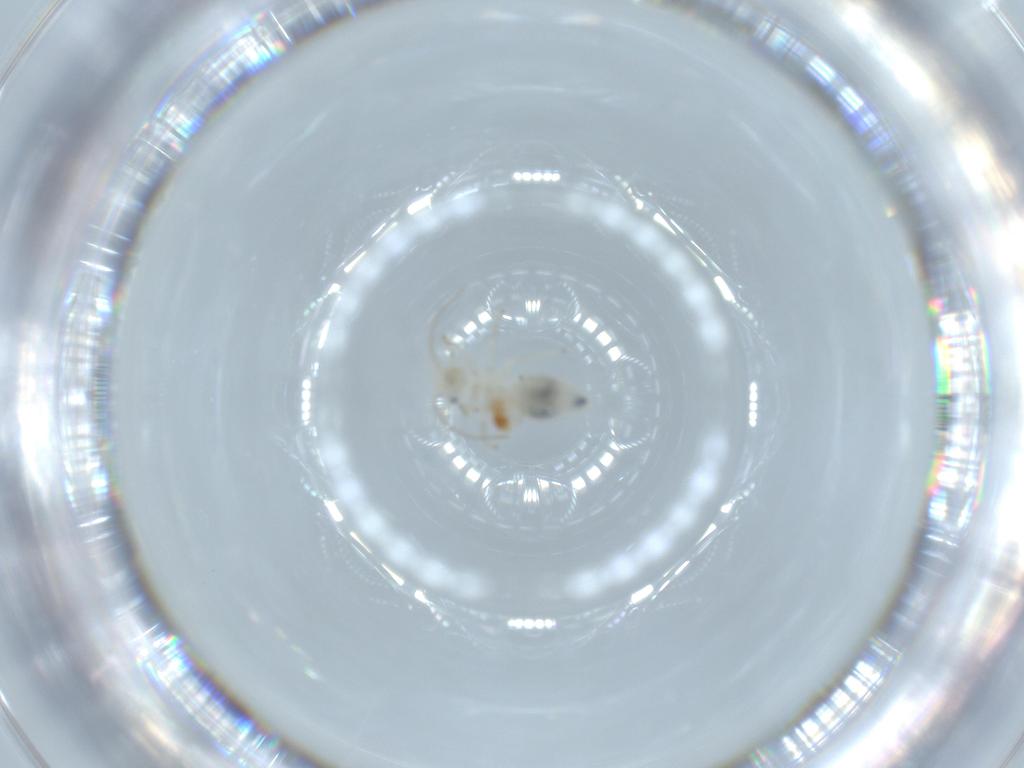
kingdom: Animalia
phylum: Arthropoda
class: Insecta
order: Psocodea
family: Caeciliusidae
